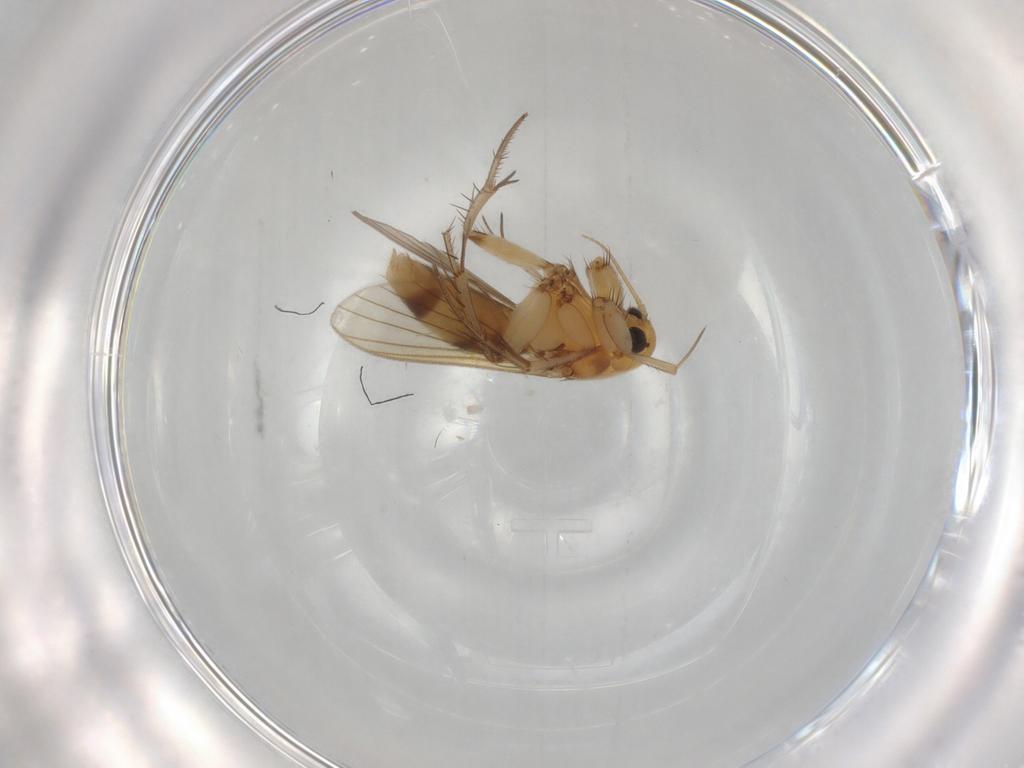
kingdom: Animalia
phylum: Arthropoda
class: Insecta
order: Diptera
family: Mycetophilidae
